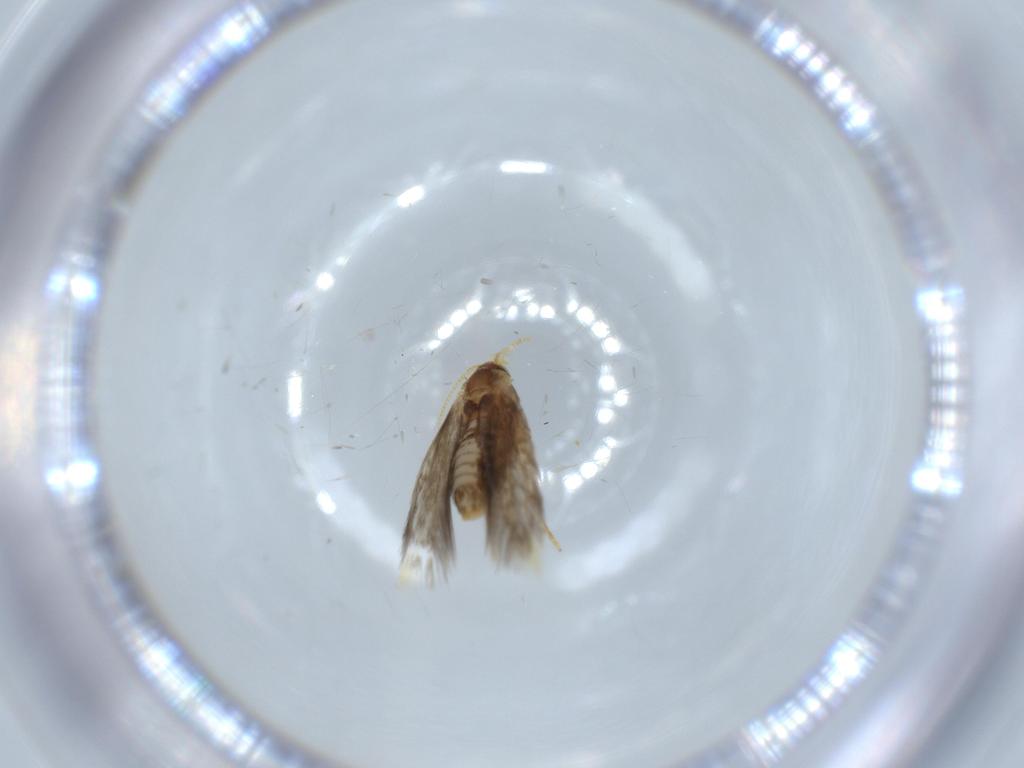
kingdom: Animalia
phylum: Arthropoda
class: Insecta
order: Lepidoptera
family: Copromorphidae
